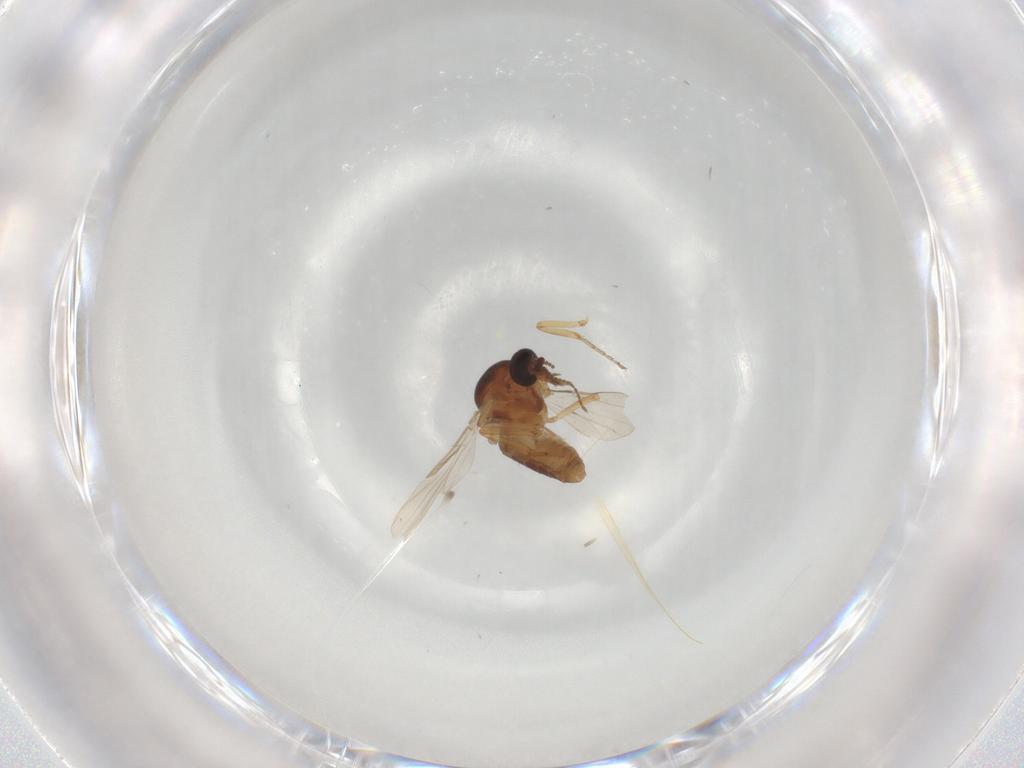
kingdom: Animalia
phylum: Arthropoda
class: Insecta
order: Diptera
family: Ceratopogonidae
